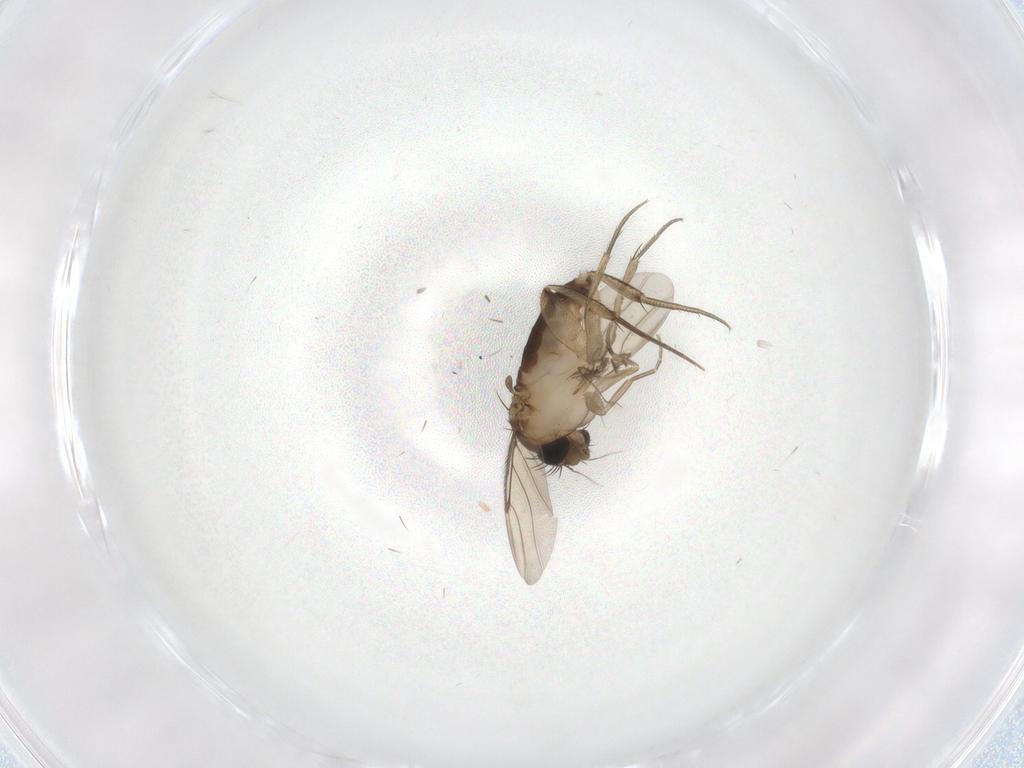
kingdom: Animalia
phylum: Arthropoda
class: Insecta
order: Diptera
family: Phoridae
